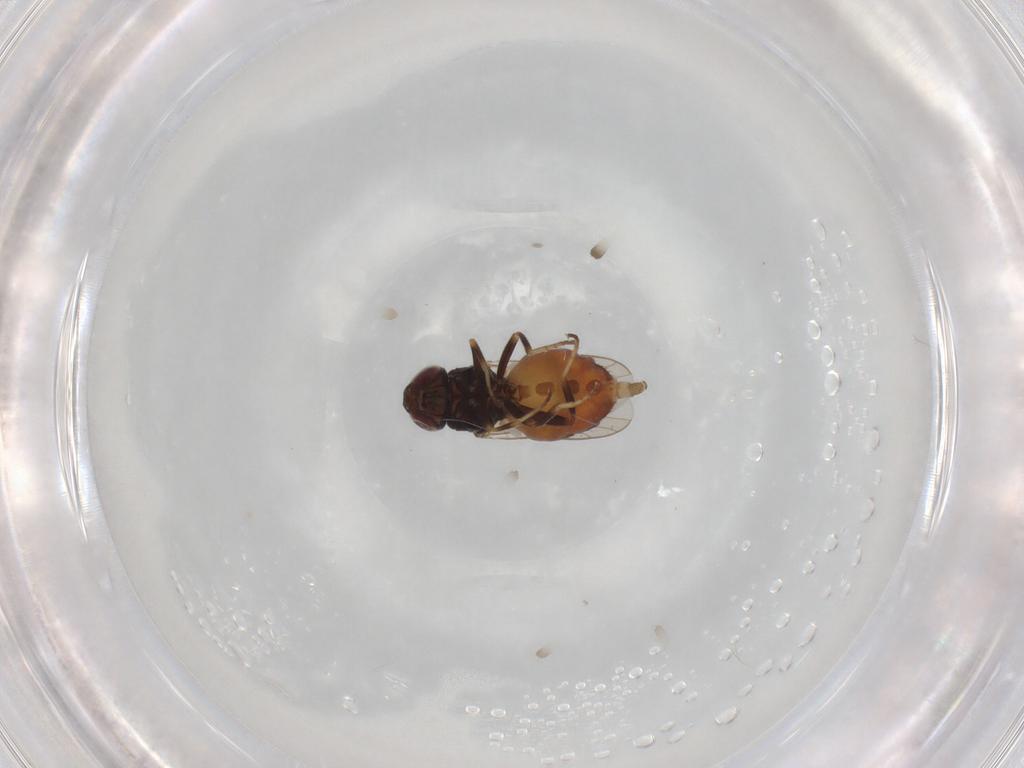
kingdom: Animalia
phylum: Arthropoda
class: Insecta
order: Diptera
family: Chloropidae
